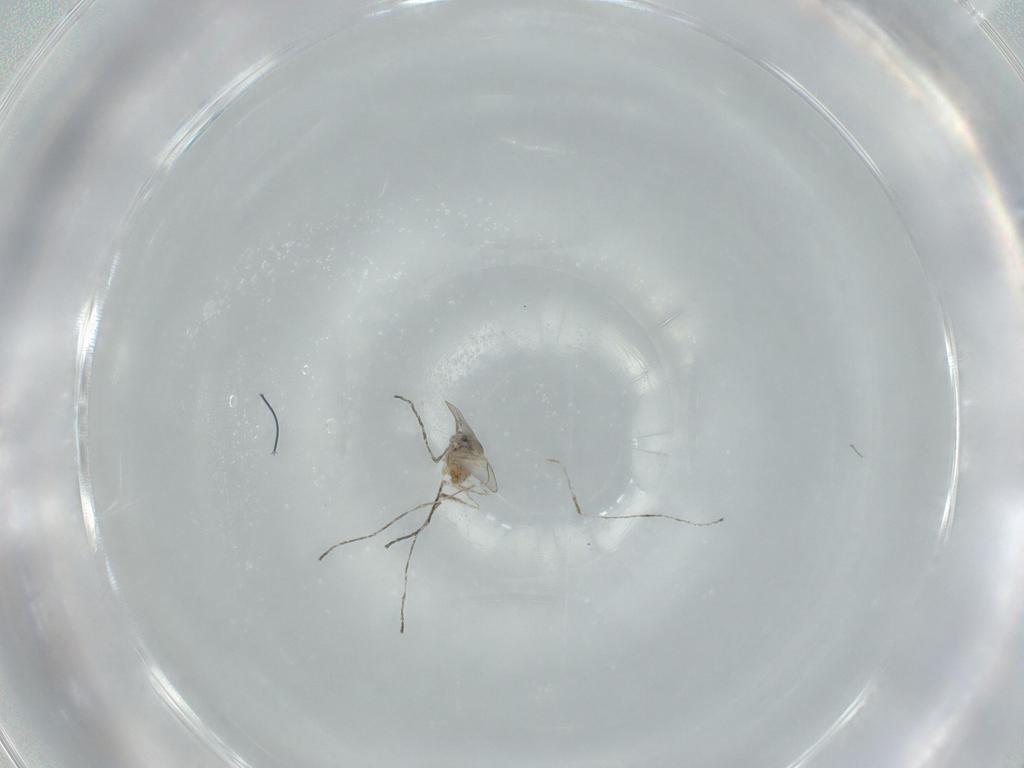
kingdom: Animalia
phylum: Arthropoda
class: Insecta
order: Diptera
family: Cecidomyiidae
